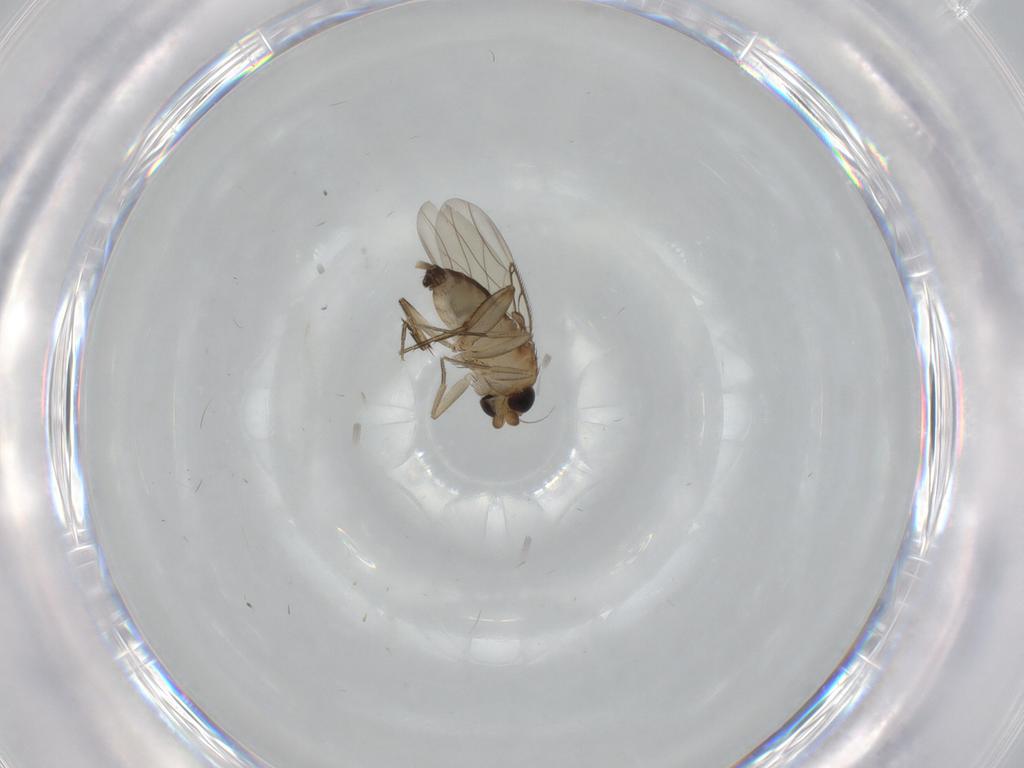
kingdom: Animalia
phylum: Arthropoda
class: Insecta
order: Diptera
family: Phoridae
